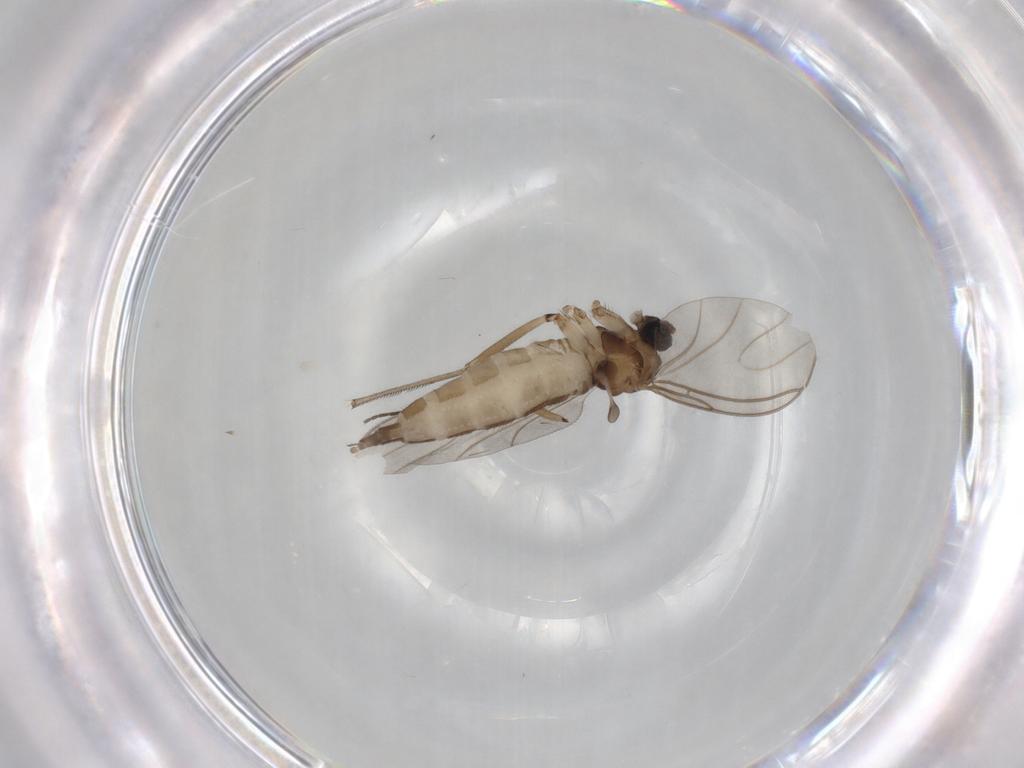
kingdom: Animalia
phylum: Arthropoda
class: Insecta
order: Diptera
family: Sciaridae
